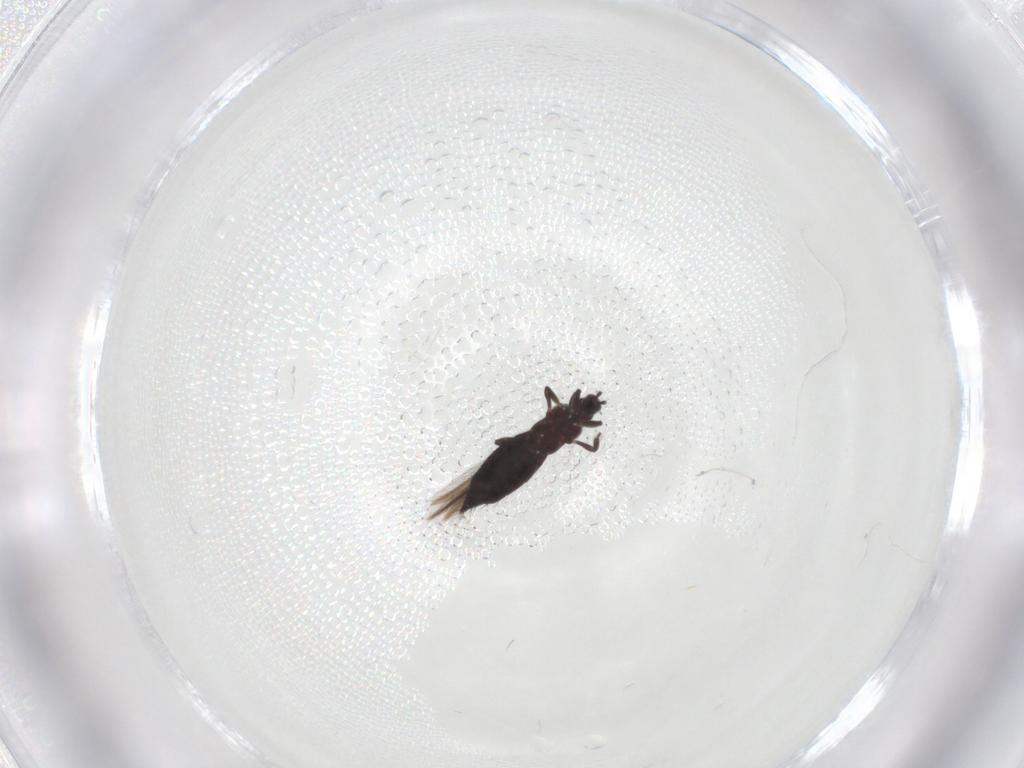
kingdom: Animalia
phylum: Arthropoda
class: Insecta
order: Thysanoptera
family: Thripidae
